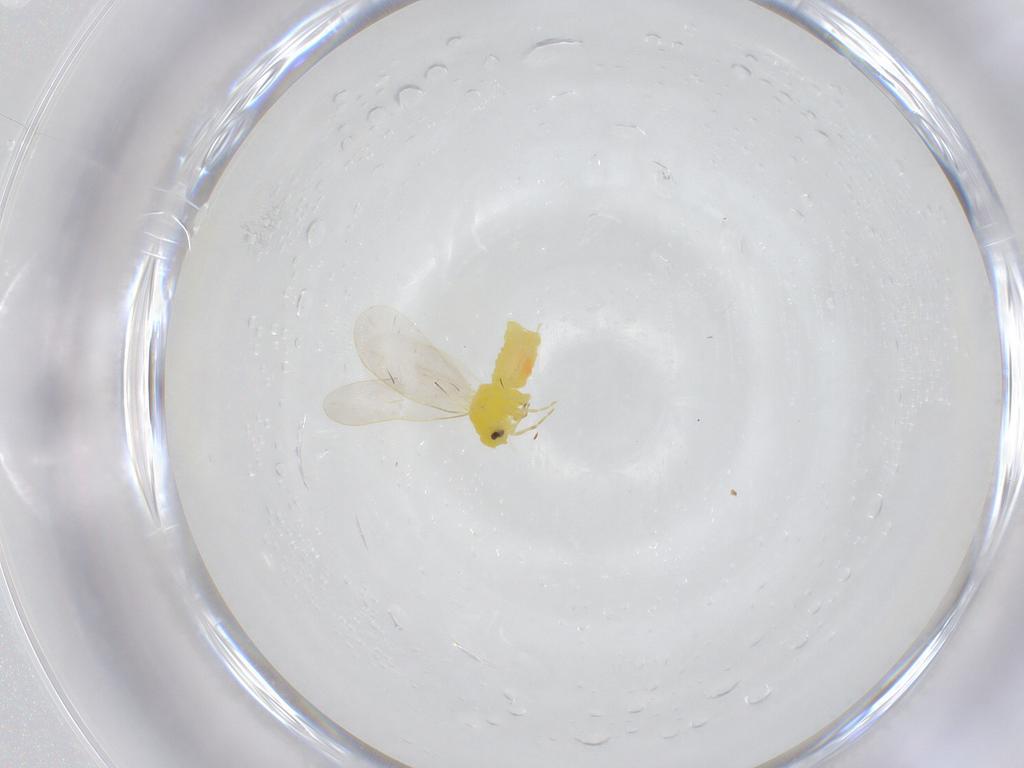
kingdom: Animalia
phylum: Arthropoda
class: Insecta
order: Hemiptera
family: Aleyrodidae
